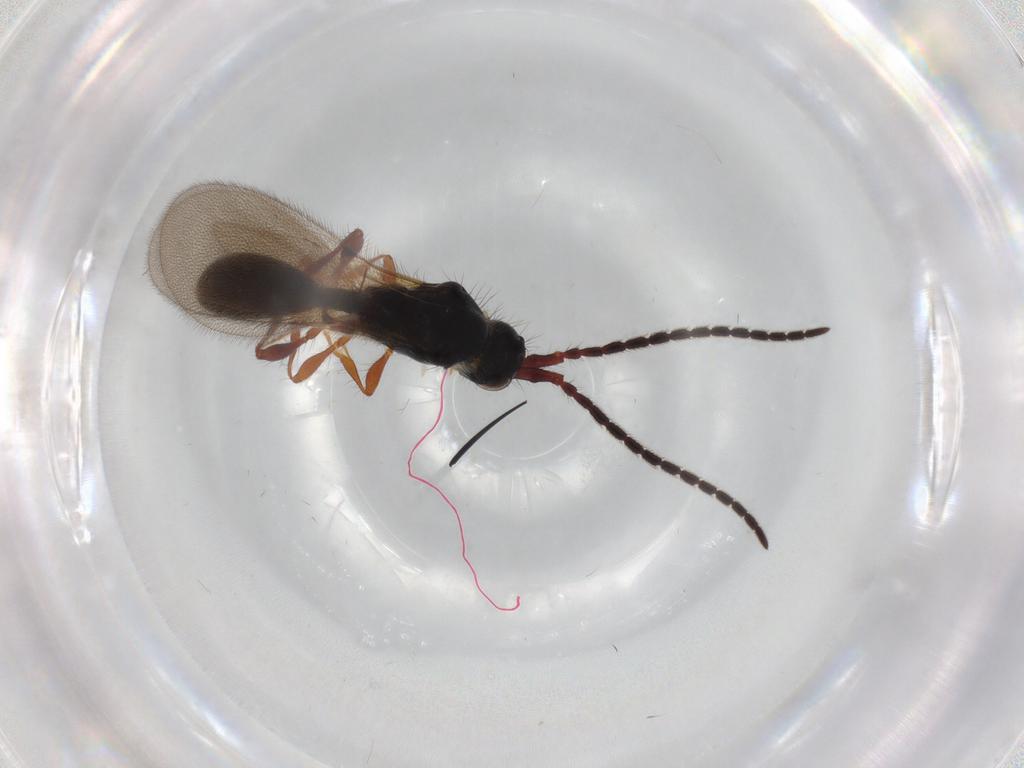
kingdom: Animalia
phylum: Arthropoda
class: Insecta
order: Hymenoptera
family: Diapriidae
